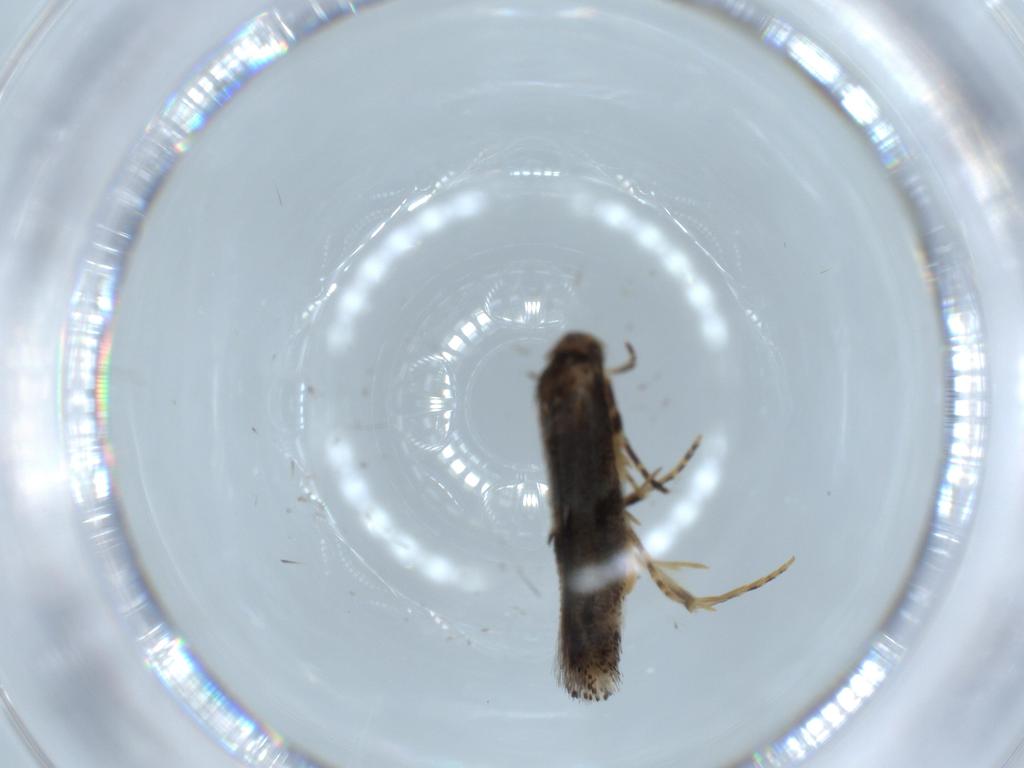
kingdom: Animalia
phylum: Arthropoda
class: Insecta
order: Lepidoptera
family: Elachistidae
